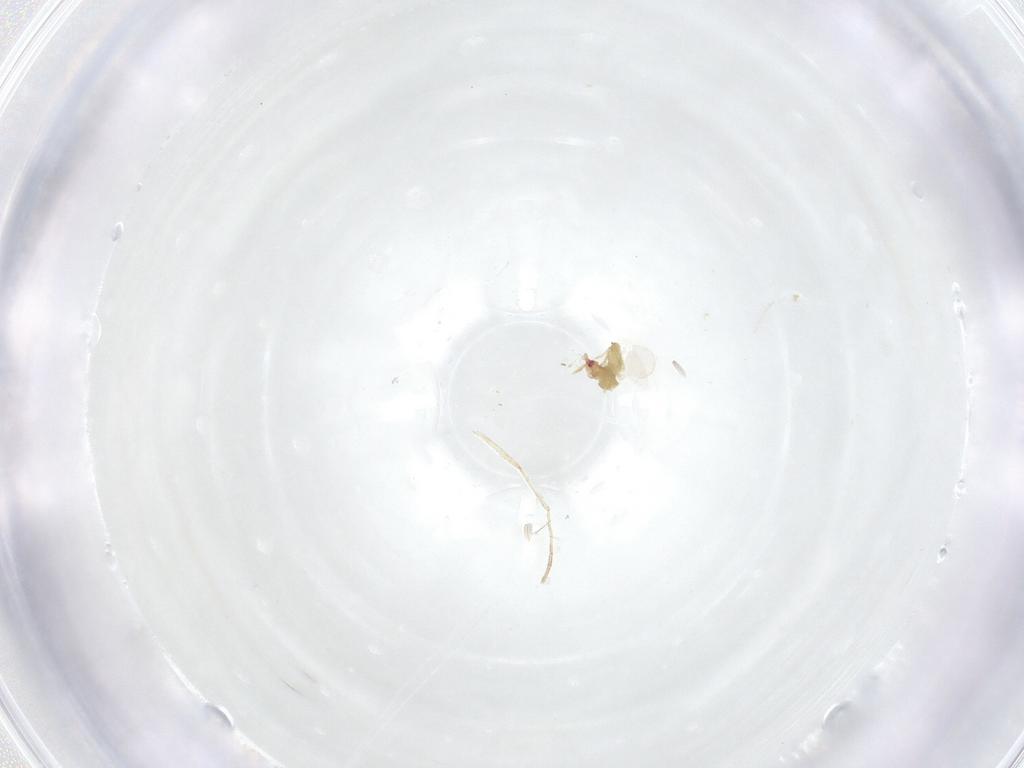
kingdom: Animalia
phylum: Arthropoda
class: Insecta
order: Diptera
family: Psychodidae
